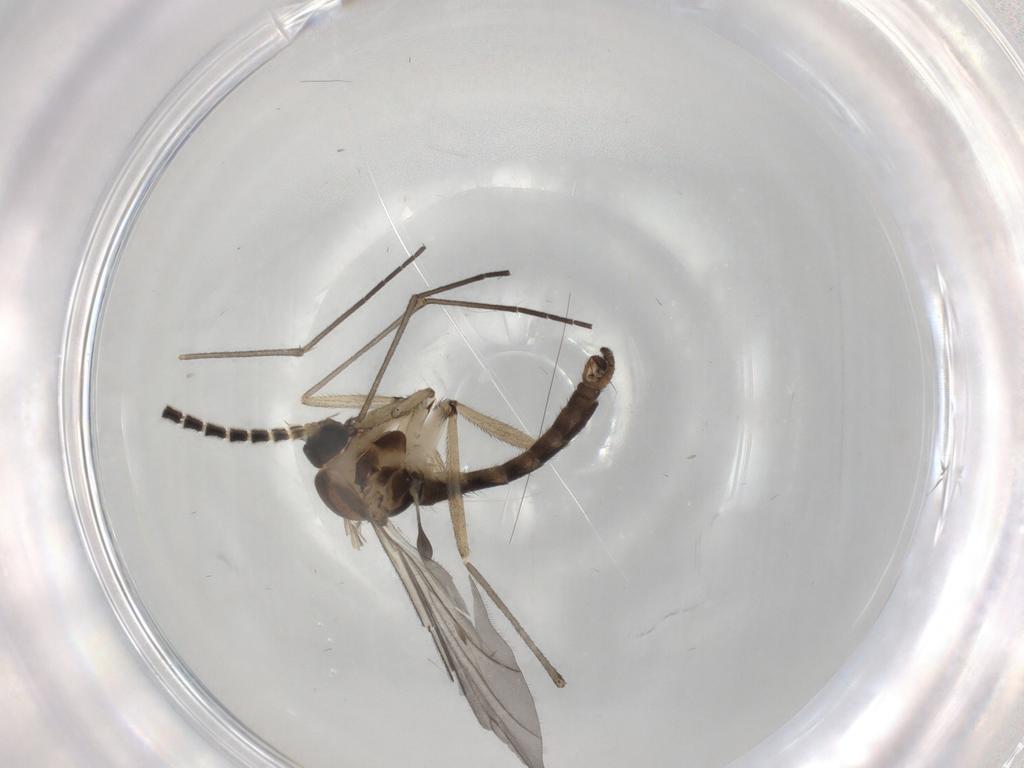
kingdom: Animalia
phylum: Arthropoda
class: Insecta
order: Diptera
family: Sciaridae
